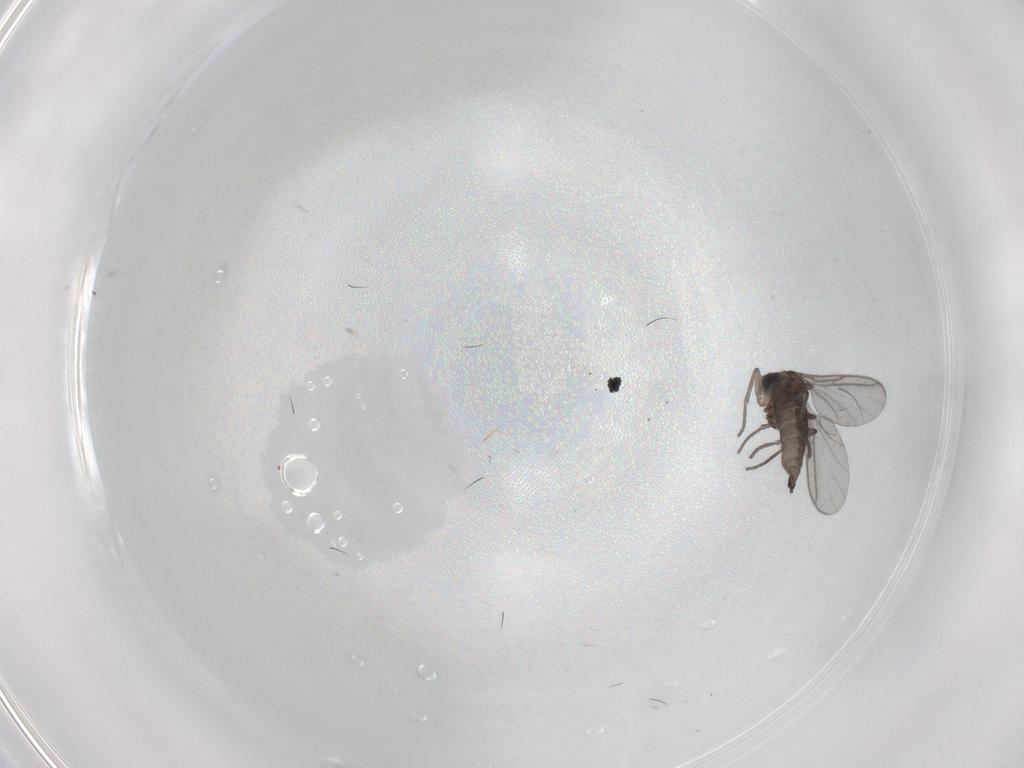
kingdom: Animalia
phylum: Arthropoda
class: Insecta
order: Diptera
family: Sciaridae
